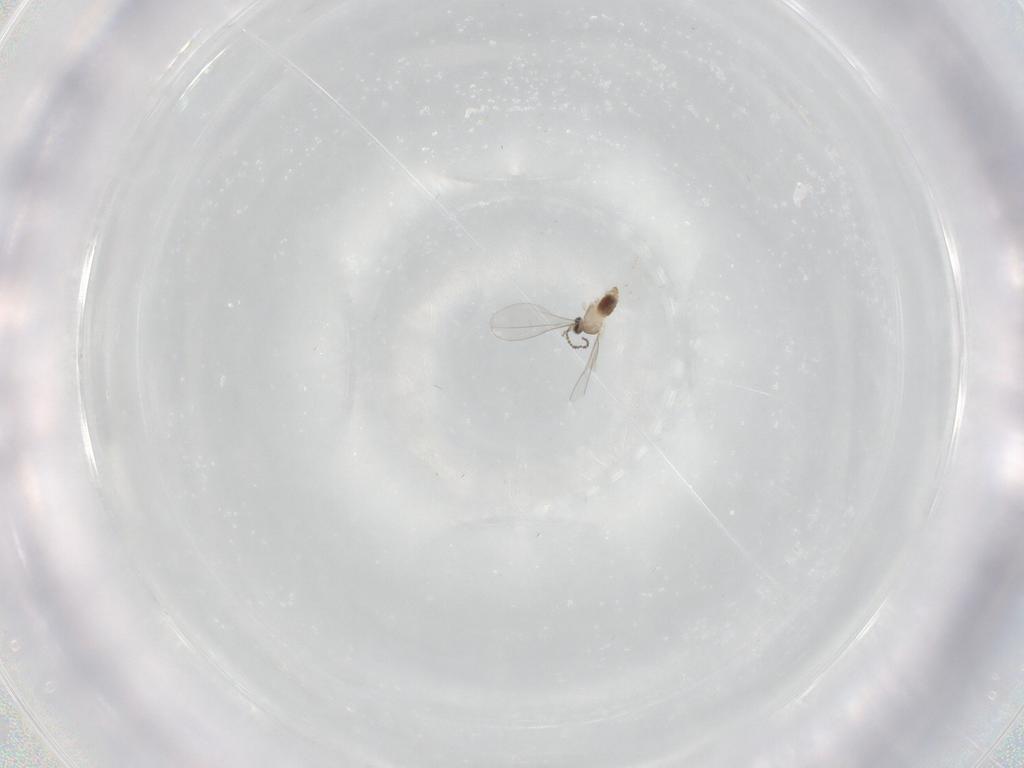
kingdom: Animalia
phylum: Arthropoda
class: Insecta
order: Diptera
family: Cecidomyiidae
